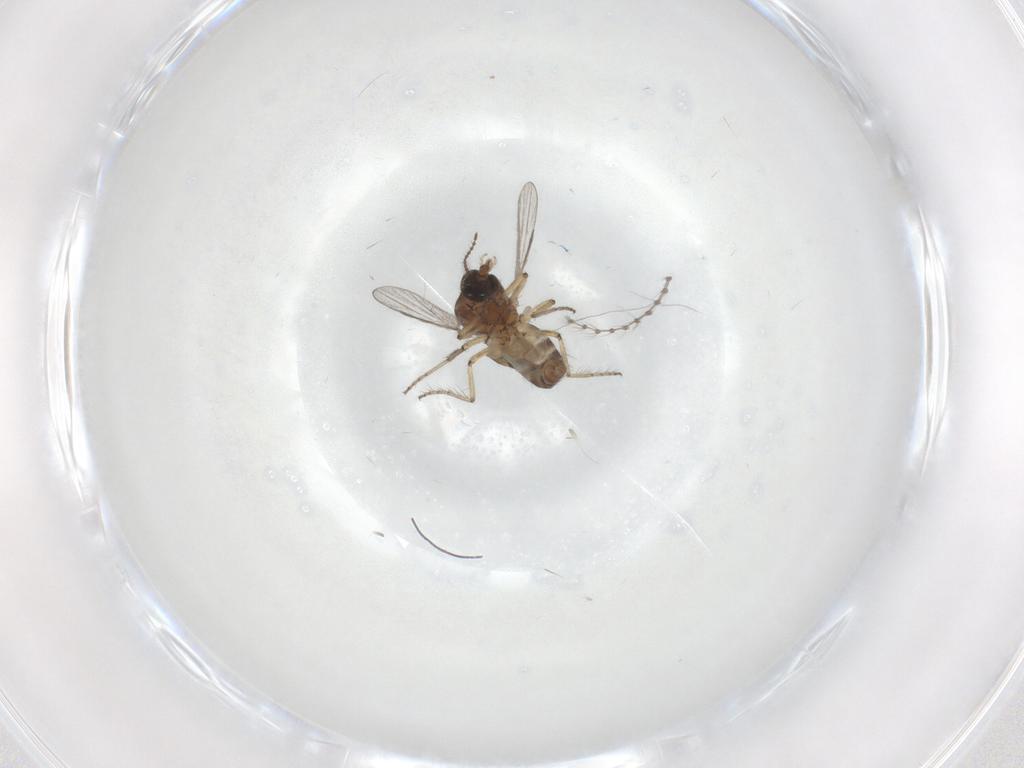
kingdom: Animalia
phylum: Arthropoda
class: Insecta
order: Diptera
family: Ceratopogonidae
